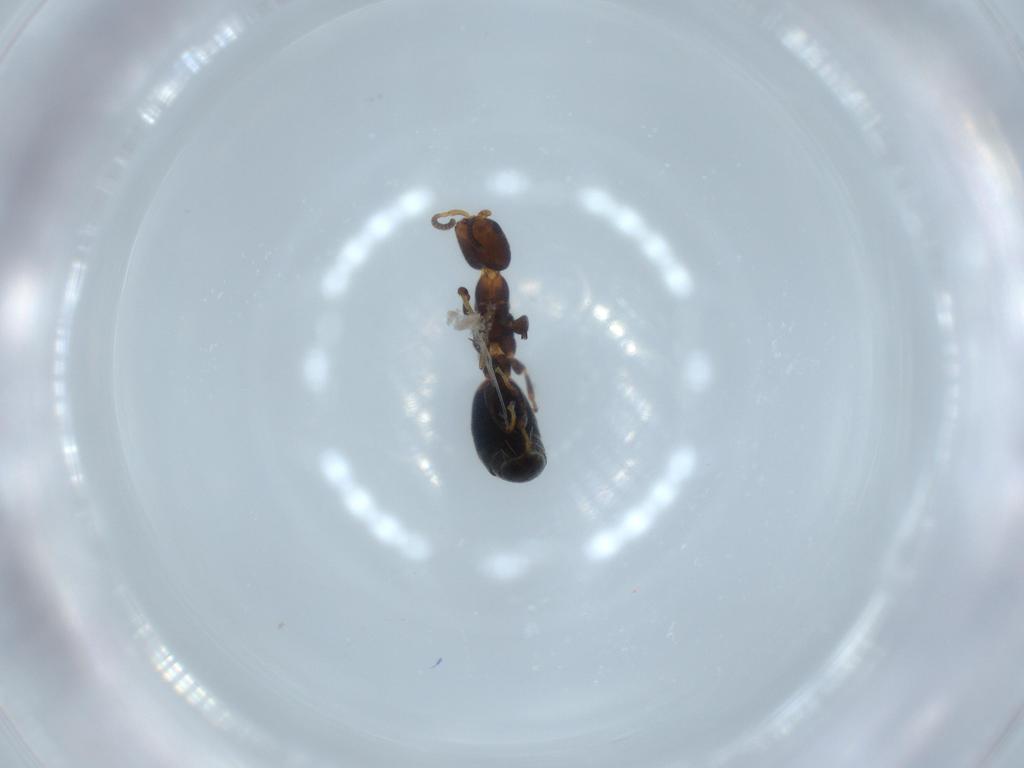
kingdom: Animalia
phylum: Arthropoda
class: Insecta
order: Hymenoptera
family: Bethylidae
